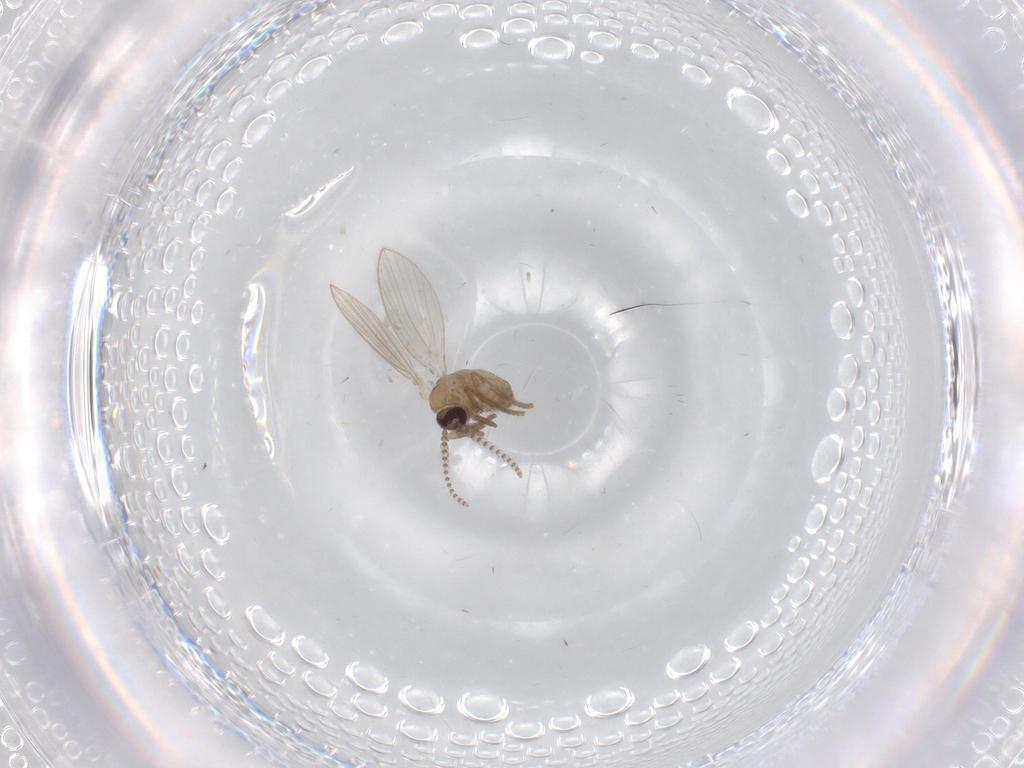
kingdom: Animalia
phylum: Arthropoda
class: Insecta
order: Diptera
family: Psychodidae
